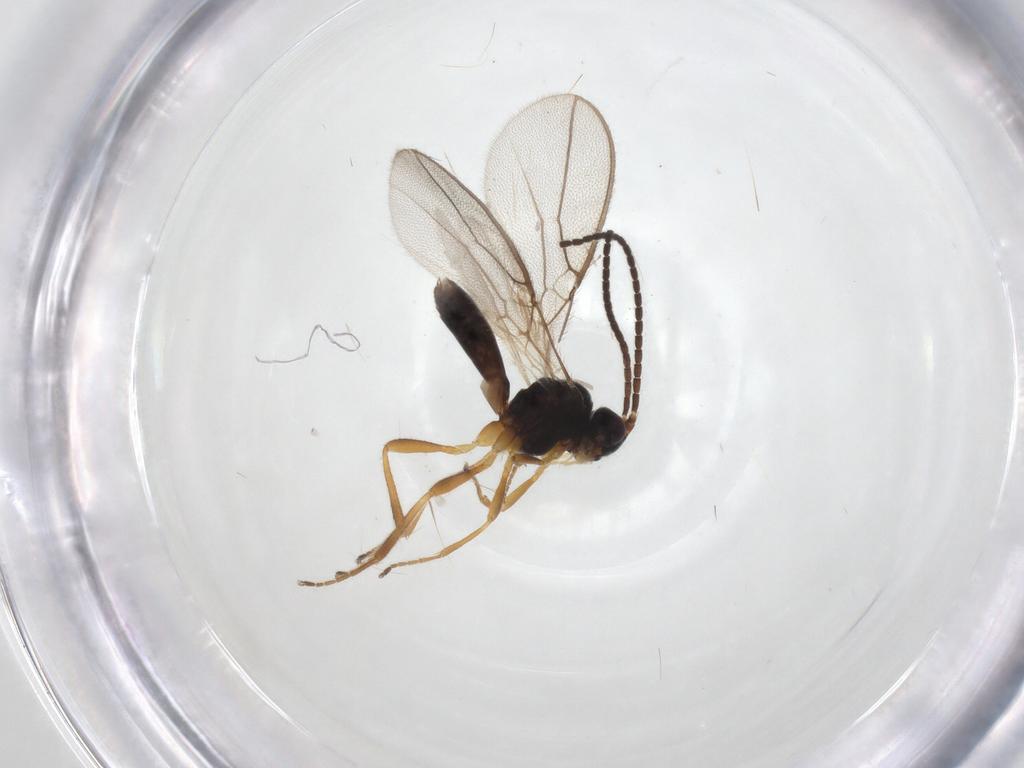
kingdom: Animalia
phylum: Arthropoda
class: Insecta
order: Hymenoptera
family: Braconidae
